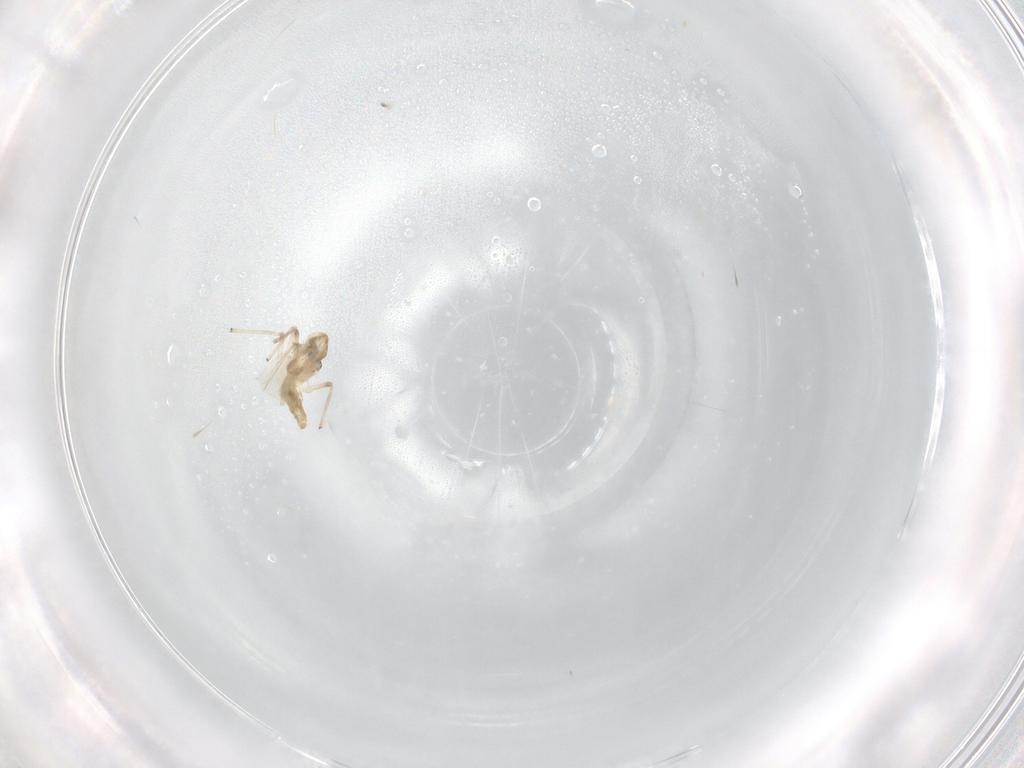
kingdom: Animalia
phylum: Arthropoda
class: Insecta
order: Diptera
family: Chironomidae
